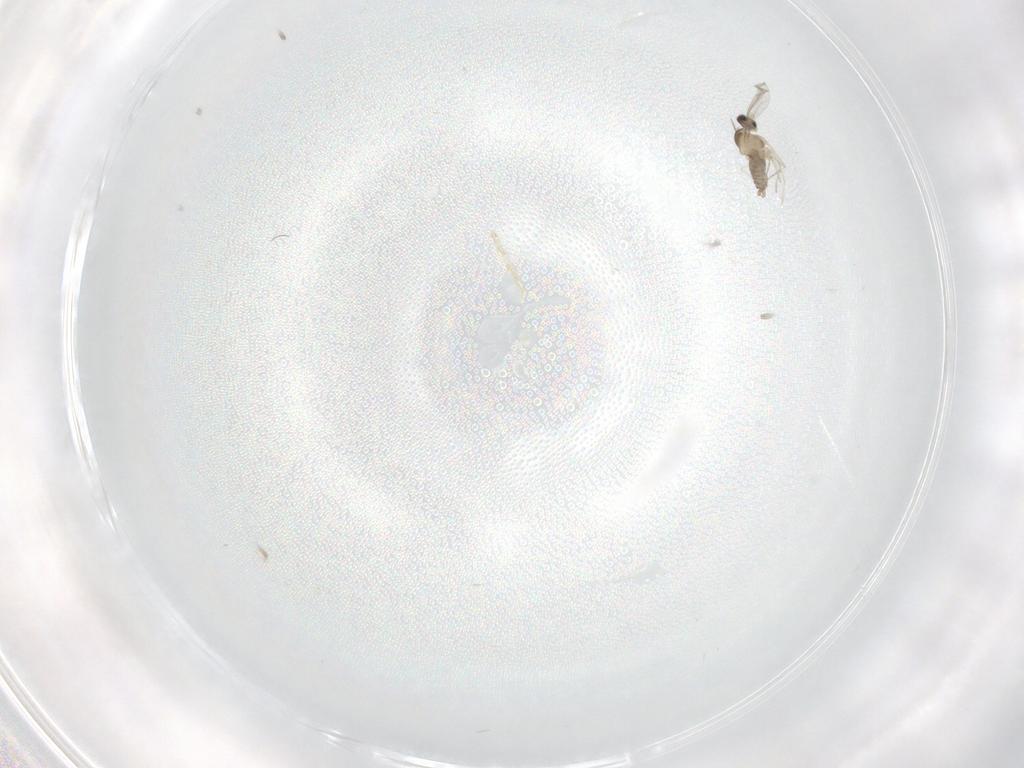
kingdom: Animalia
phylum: Arthropoda
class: Insecta
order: Diptera
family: Cecidomyiidae
